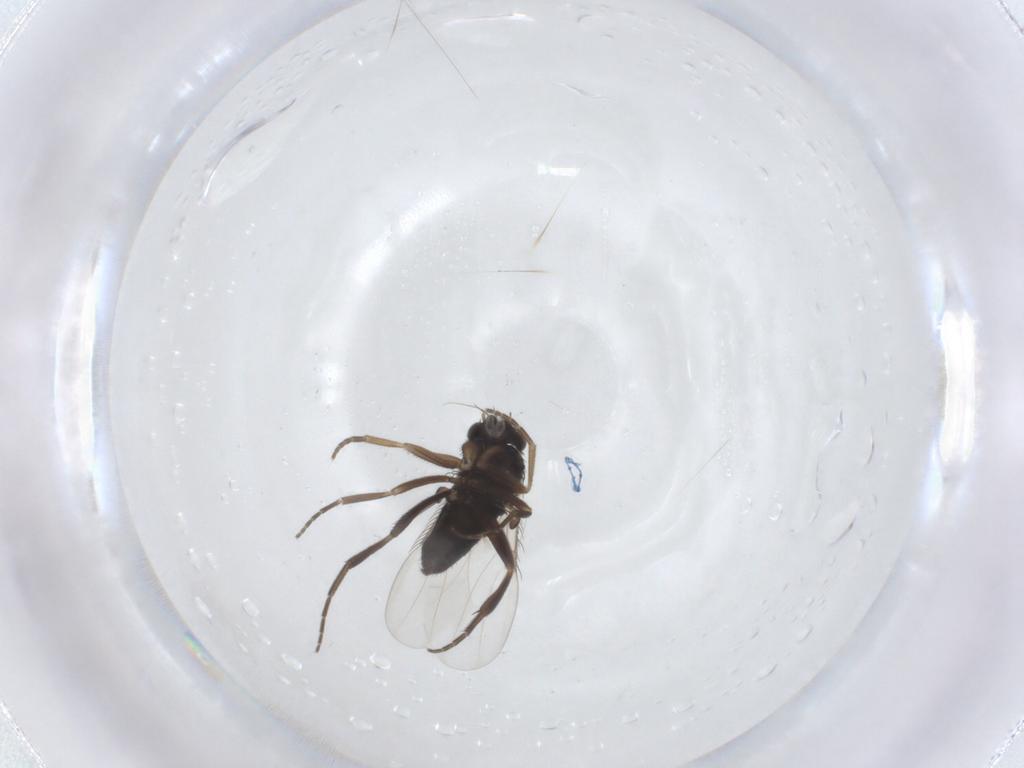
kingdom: Animalia
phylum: Arthropoda
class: Insecta
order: Diptera
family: Phoridae
